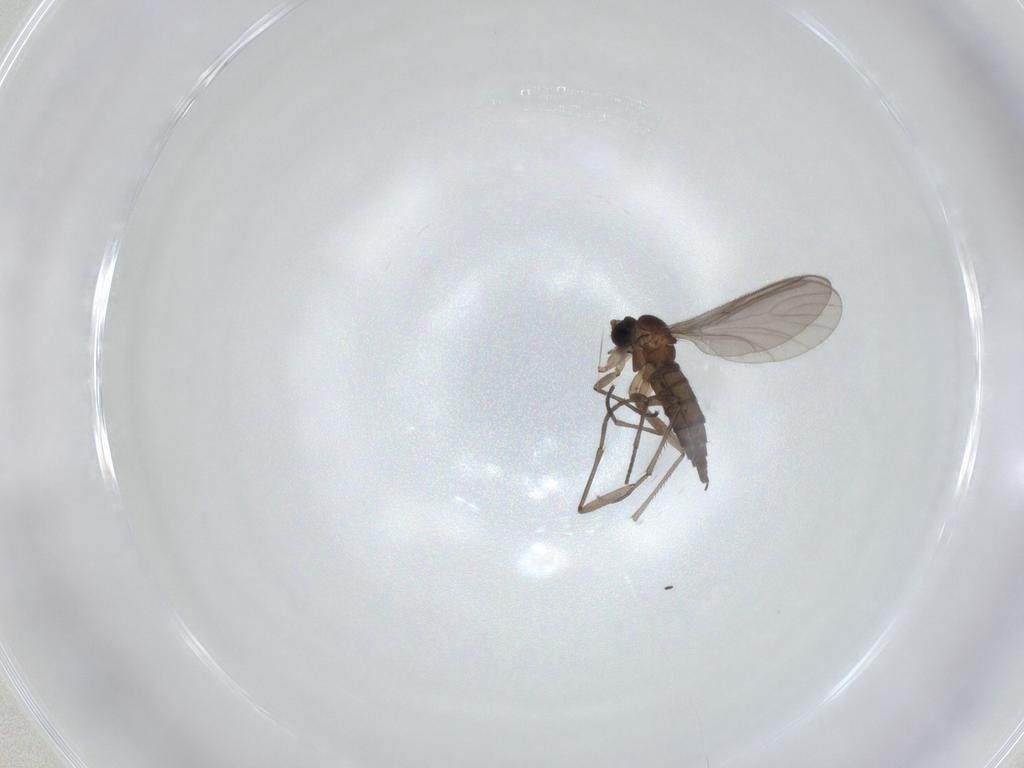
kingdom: Animalia
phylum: Arthropoda
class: Insecta
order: Diptera
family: Sciaridae
